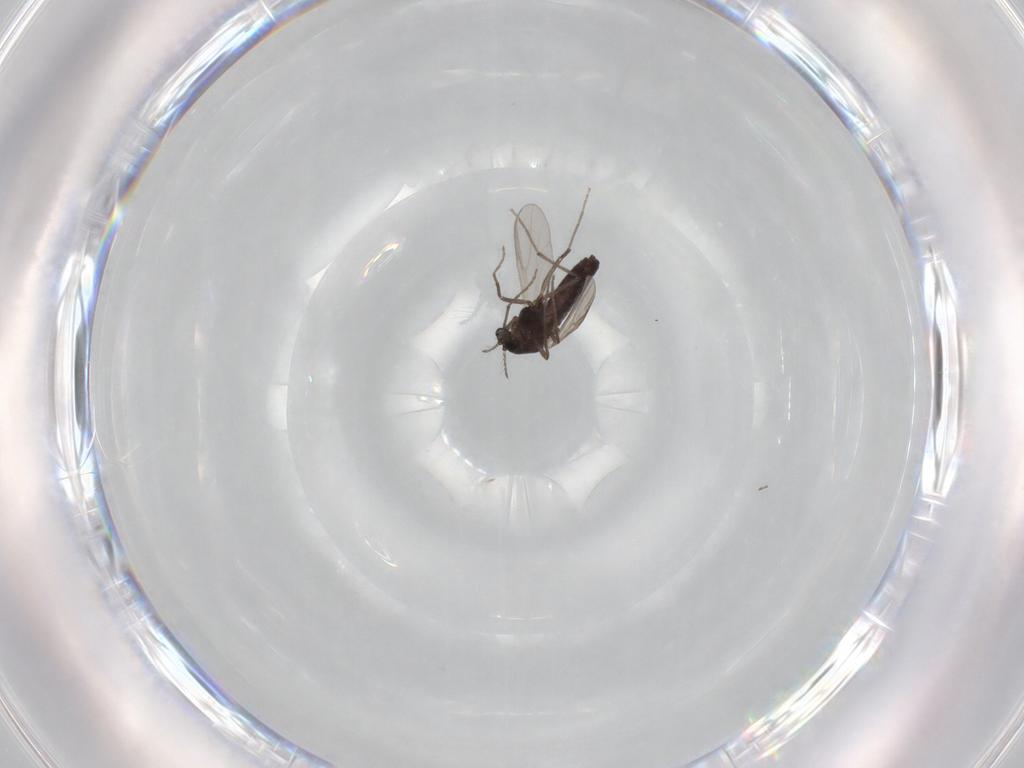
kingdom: Animalia
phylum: Arthropoda
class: Insecta
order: Diptera
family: Chironomidae
